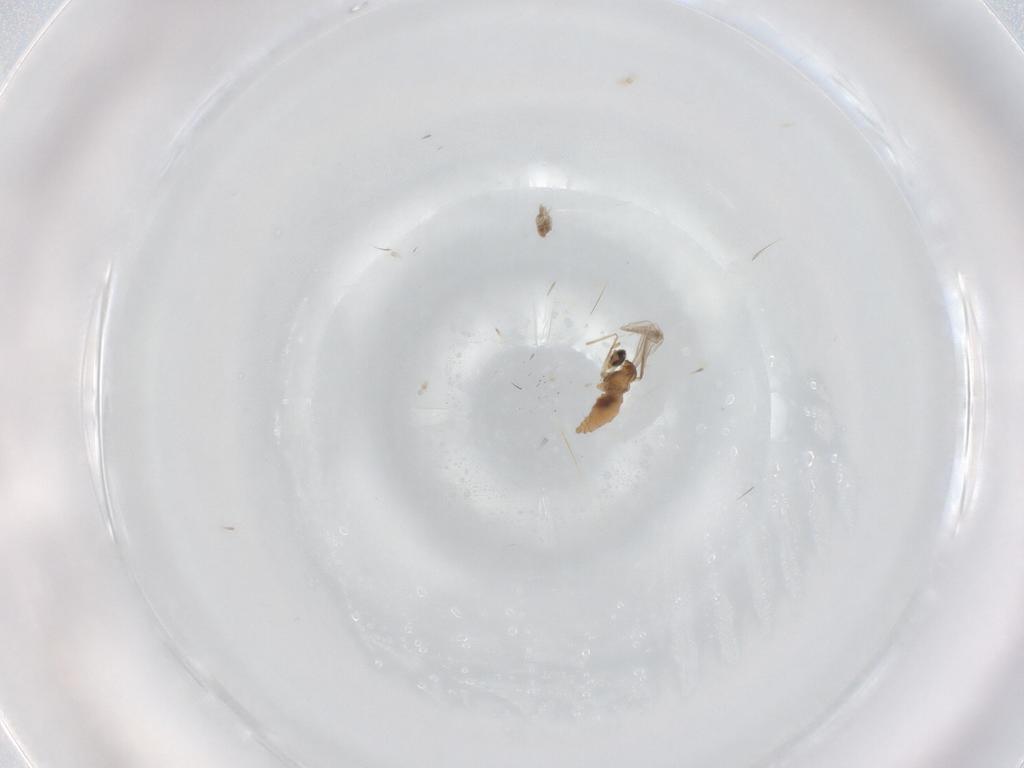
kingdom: Animalia
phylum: Arthropoda
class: Insecta
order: Diptera
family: Cecidomyiidae
